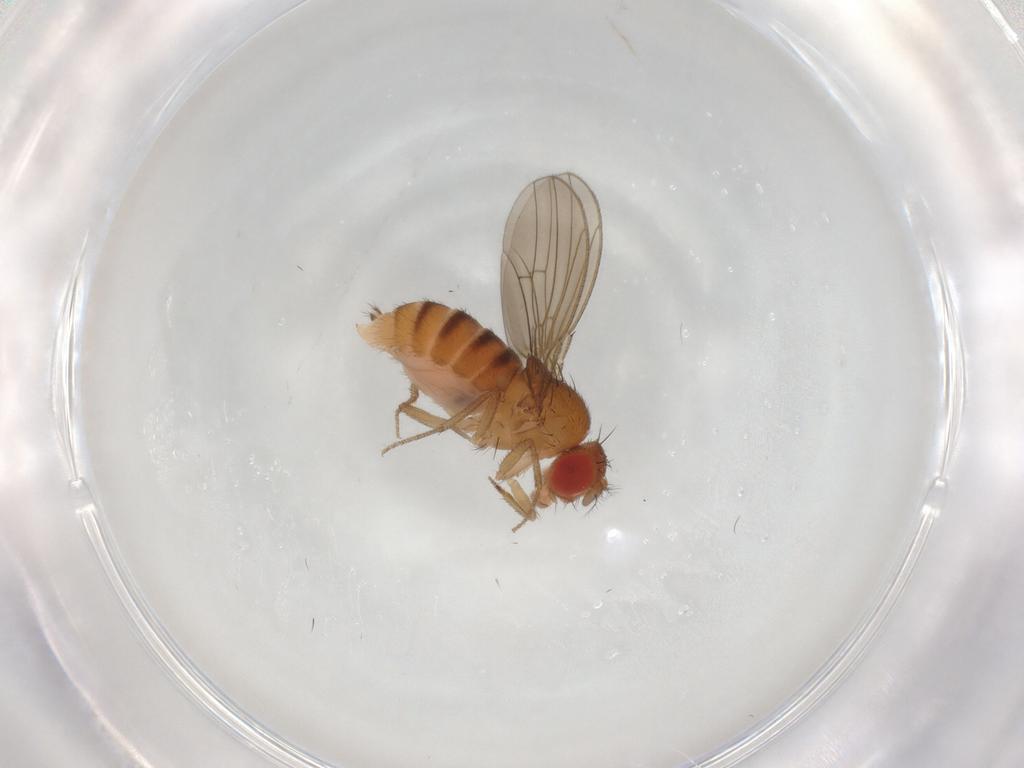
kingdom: Animalia
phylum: Arthropoda
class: Insecta
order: Diptera
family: Drosophilidae
